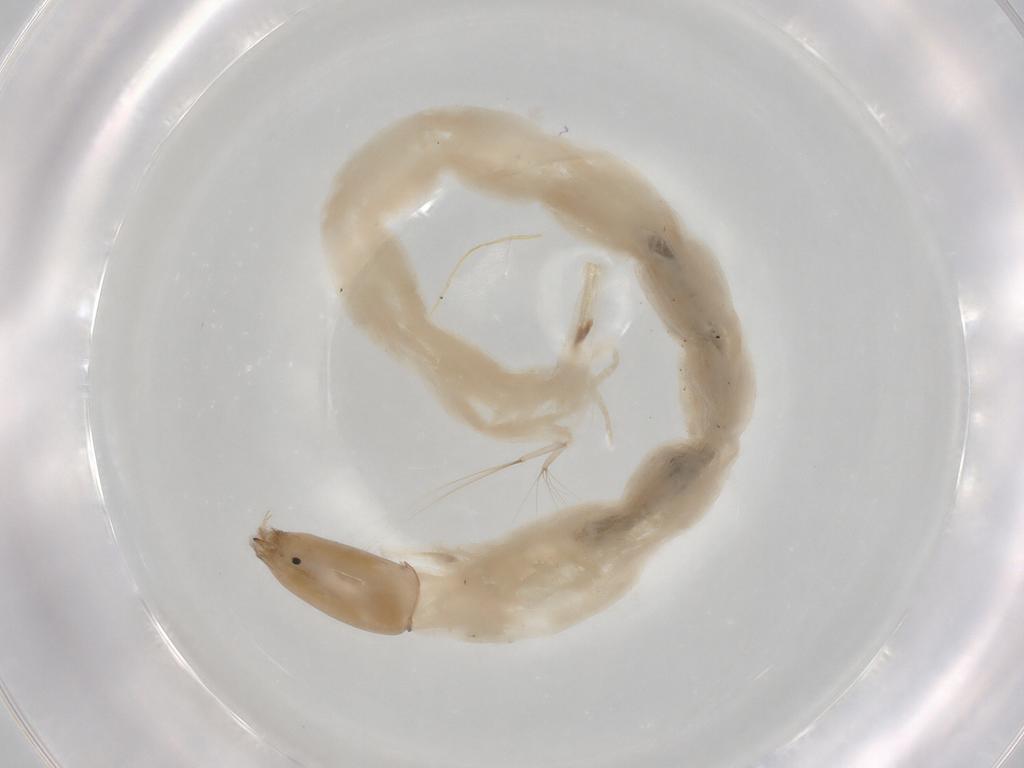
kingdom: Animalia
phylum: Arthropoda
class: Insecta
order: Diptera
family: Chironomidae
